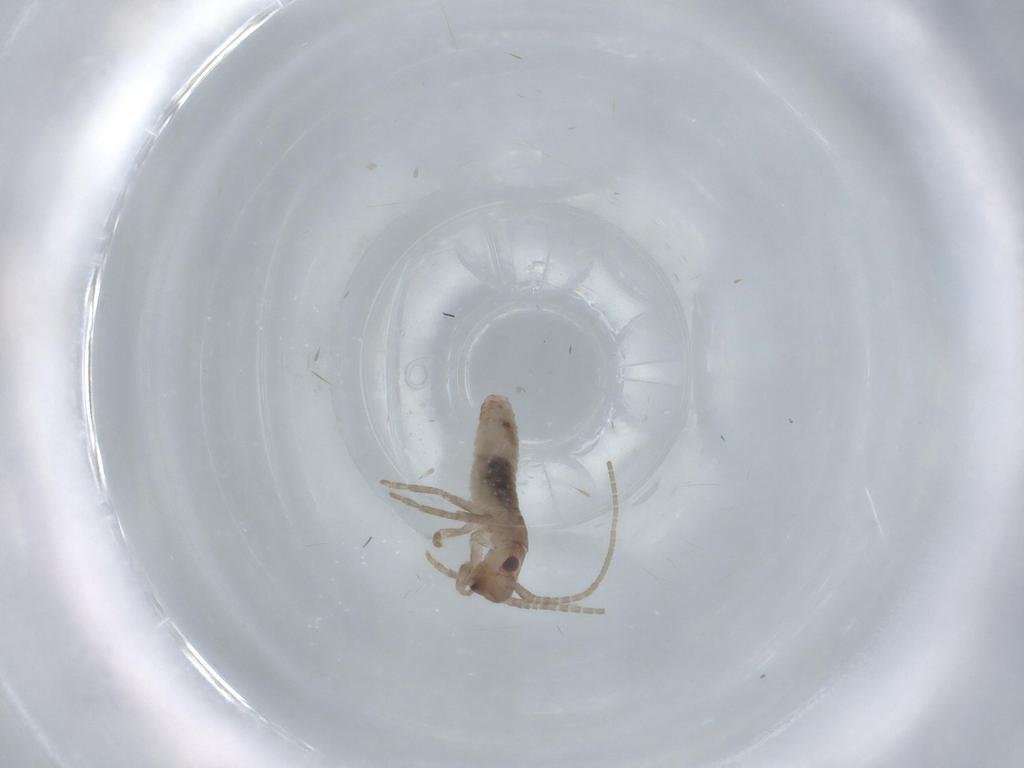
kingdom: Animalia
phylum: Arthropoda
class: Insecta
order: Orthoptera
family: Mogoplistidae
